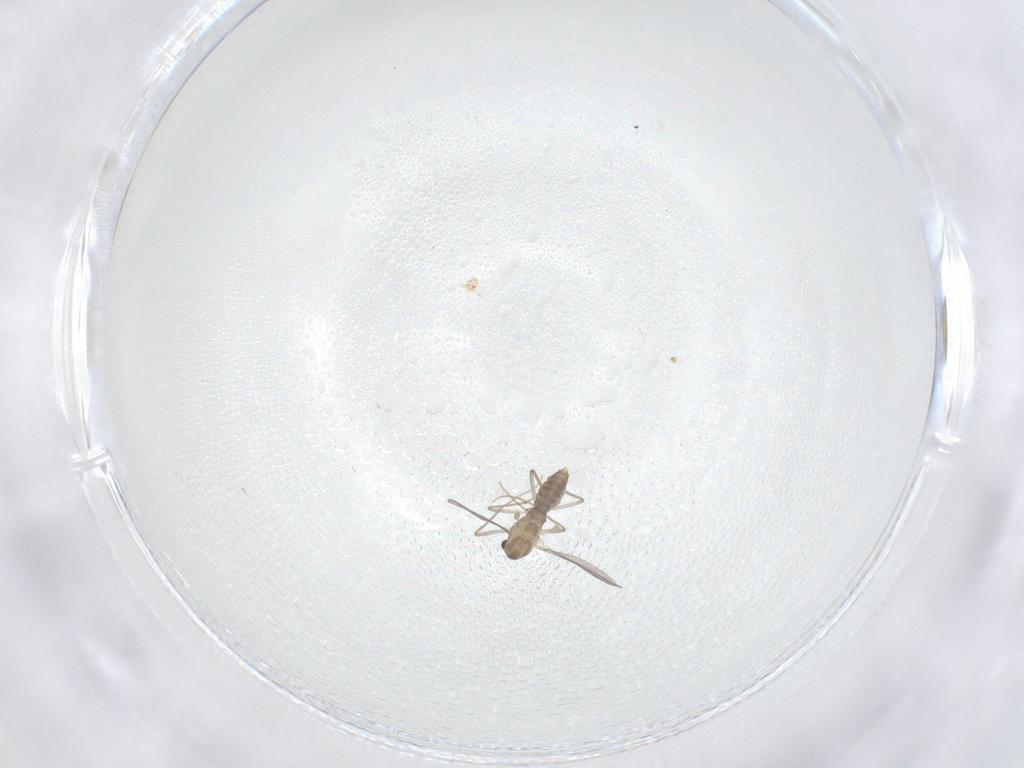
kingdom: Animalia
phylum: Arthropoda
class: Insecta
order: Diptera
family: Chironomidae
